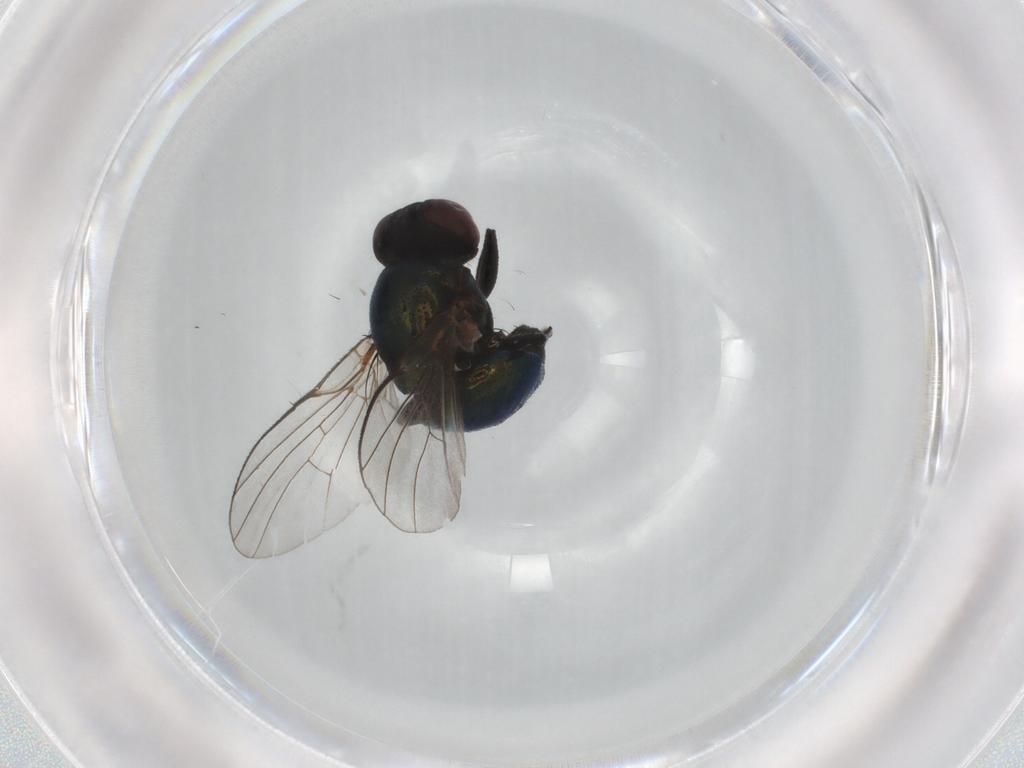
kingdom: Animalia
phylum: Arthropoda
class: Insecta
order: Diptera
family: Agromyzidae
